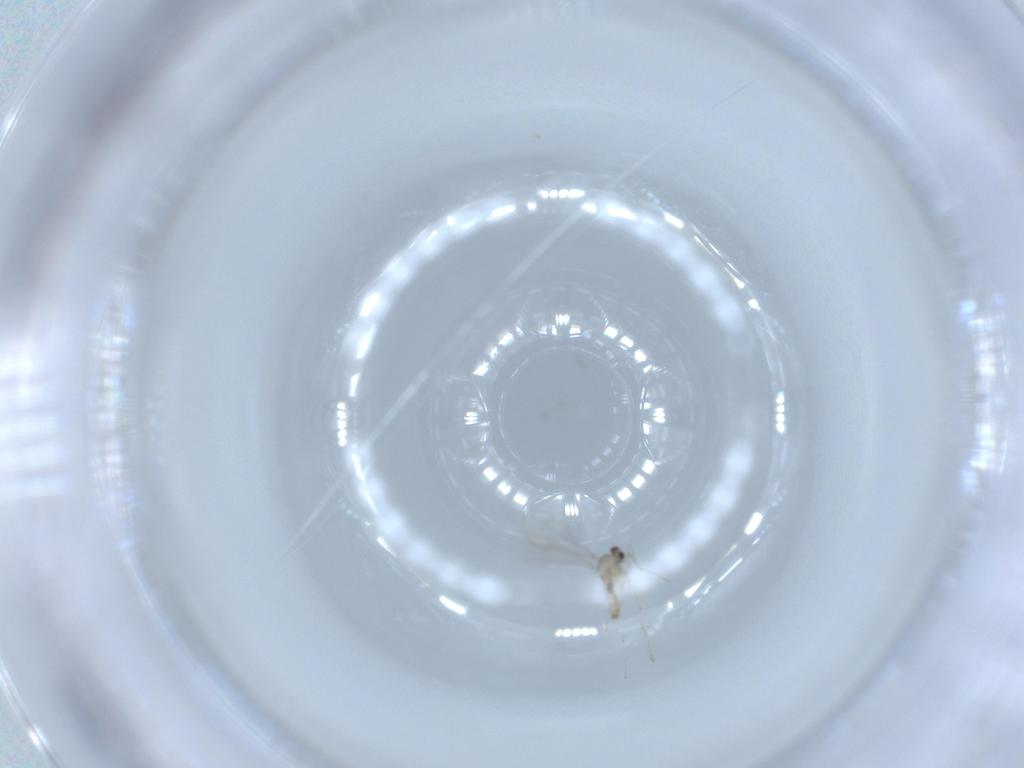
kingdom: Animalia
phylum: Arthropoda
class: Insecta
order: Diptera
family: Cecidomyiidae
